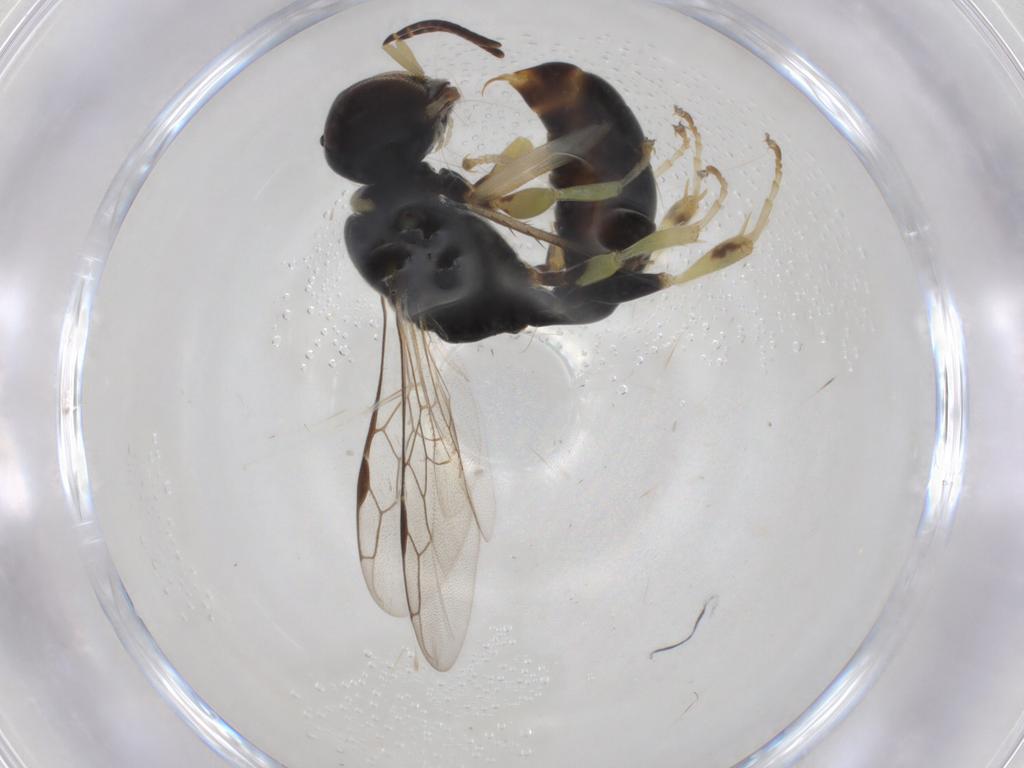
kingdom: Animalia
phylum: Arthropoda
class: Insecta
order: Hymenoptera
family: Crabronidae
